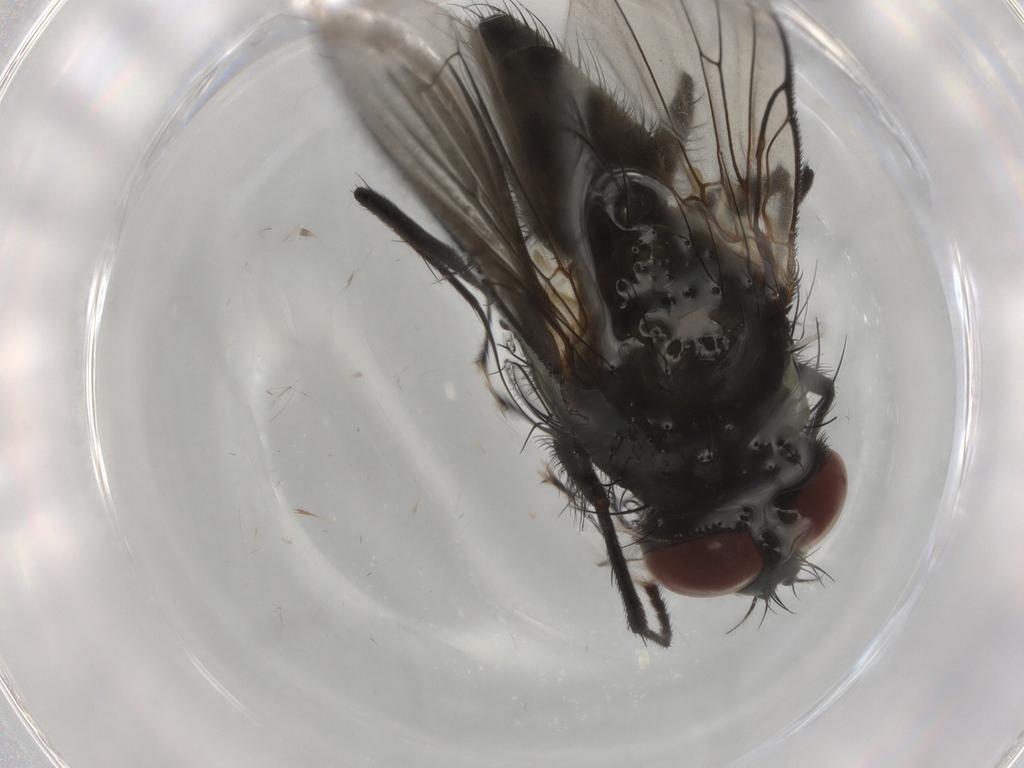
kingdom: Animalia
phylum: Arthropoda
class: Insecta
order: Diptera
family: Muscidae
